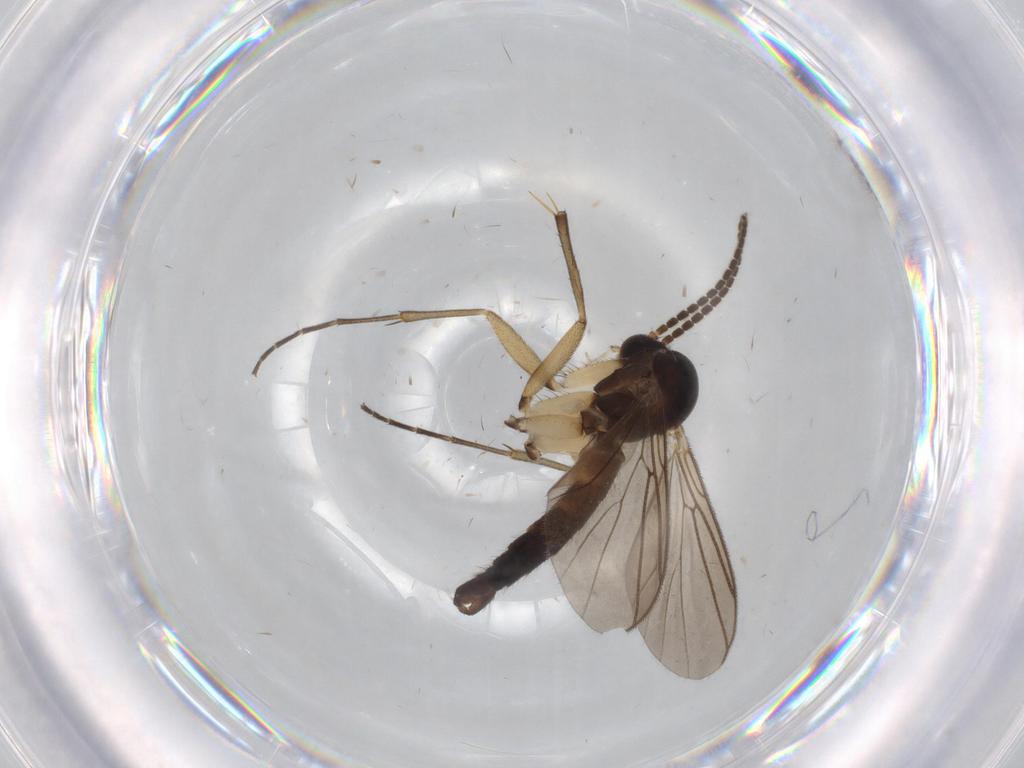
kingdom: Animalia
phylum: Arthropoda
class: Insecta
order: Diptera
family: Mycetophilidae
